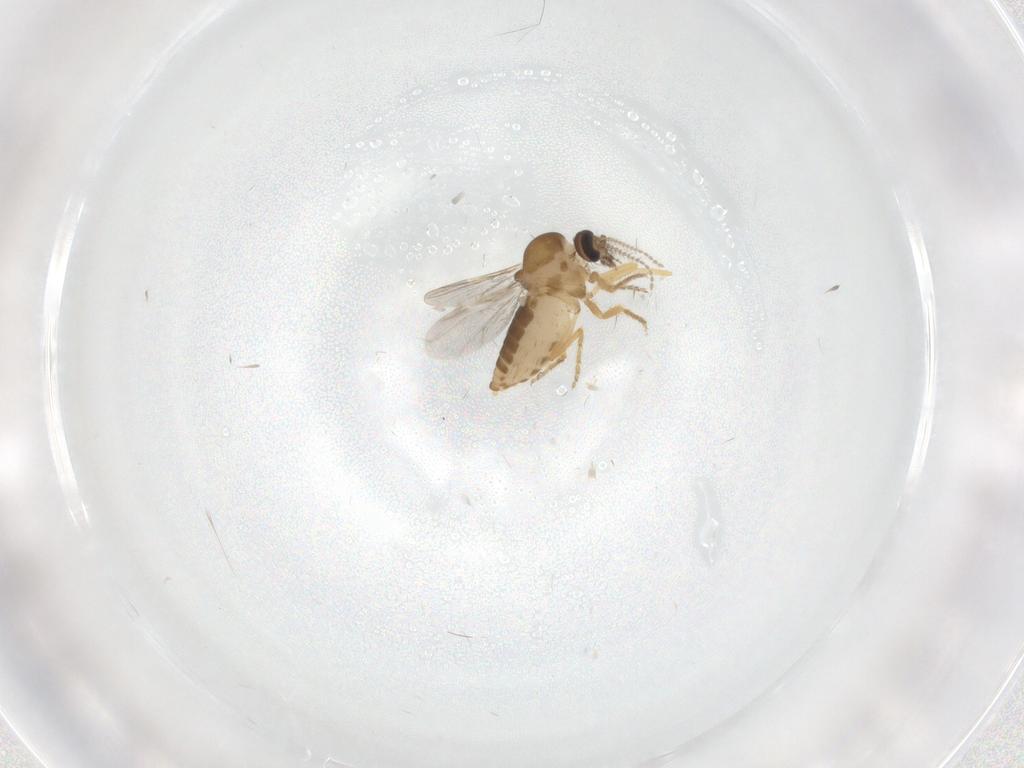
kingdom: Animalia
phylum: Arthropoda
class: Insecta
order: Diptera
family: Ceratopogonidae
